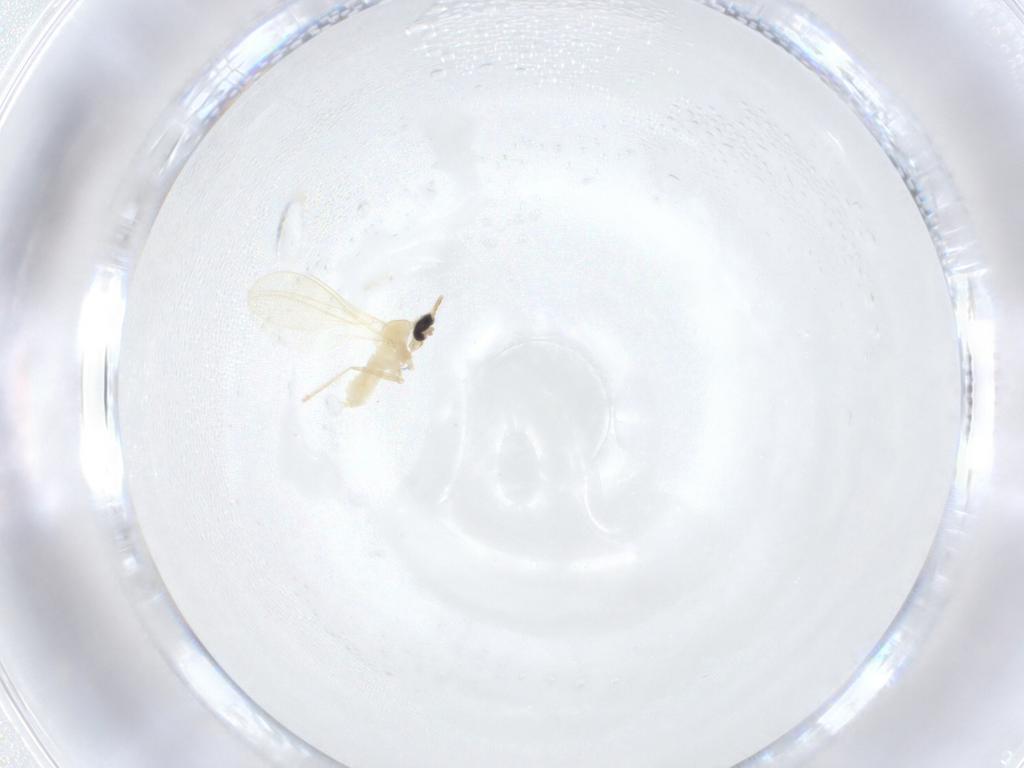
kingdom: Animalia
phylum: Arthropoda
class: Insecta
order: Diptera
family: Cecidomyiidae
